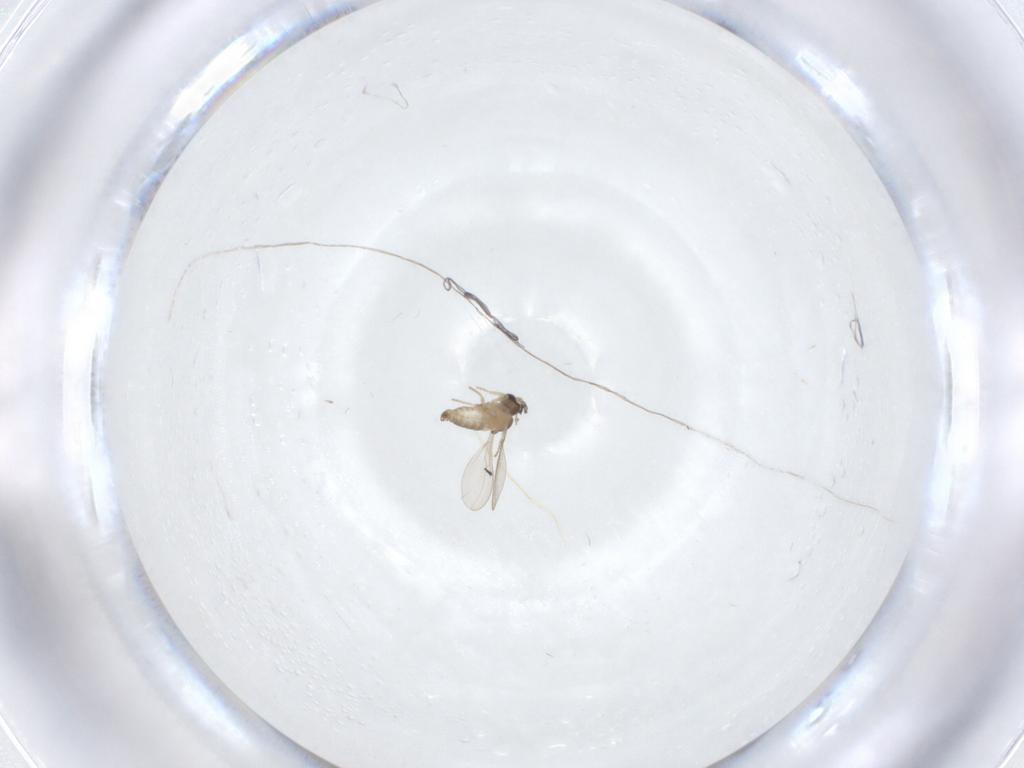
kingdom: Animalia
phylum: Arthropoda
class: Insecta
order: Diptera
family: Cecidomyiidae
